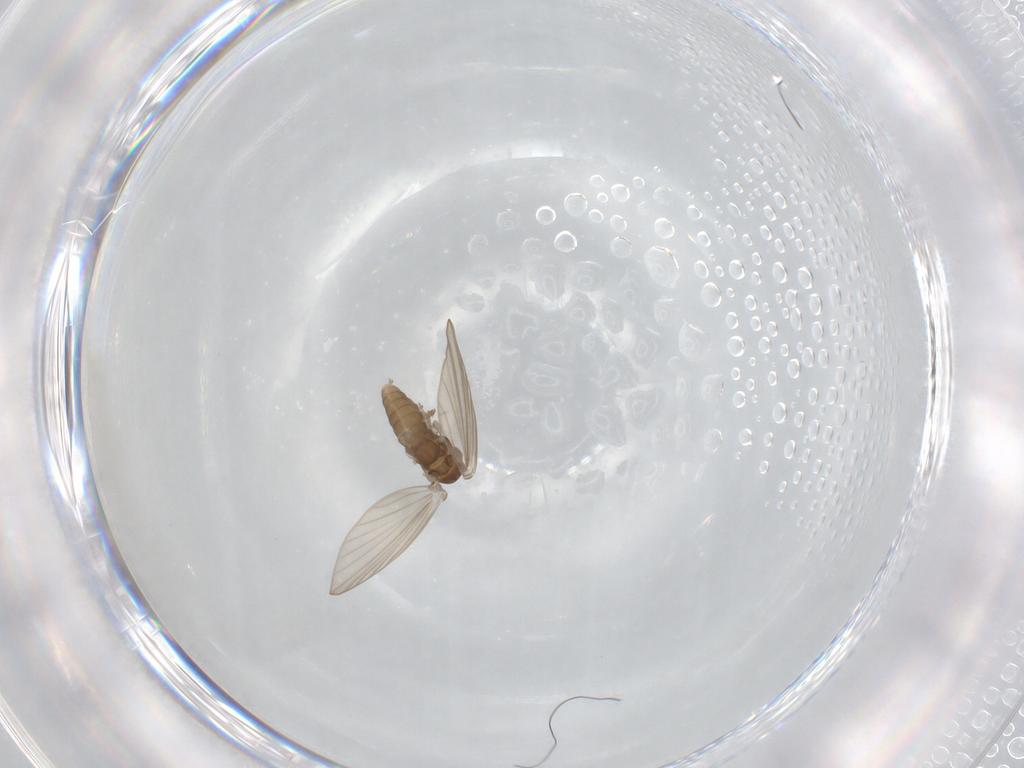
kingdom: Animalia
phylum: Arthropoda
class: Insecta
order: Diptera
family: Psychodidae
